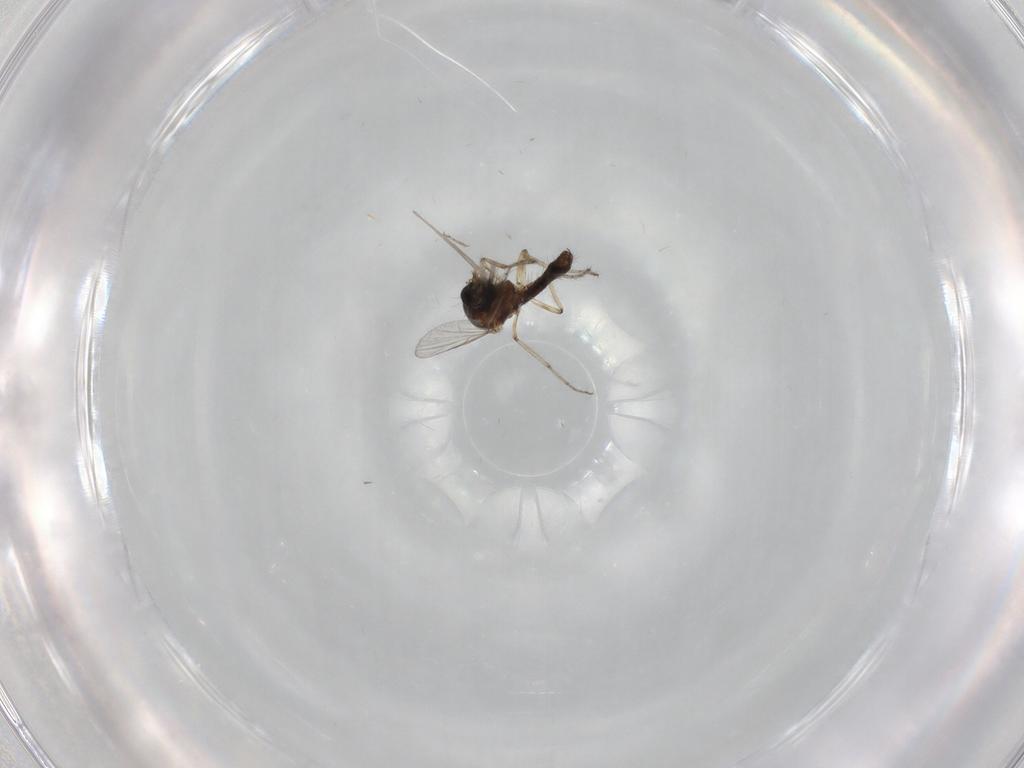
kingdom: Animalia
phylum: Arthropoda
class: Insecta
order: Diptera
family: Ceratopogonidae
